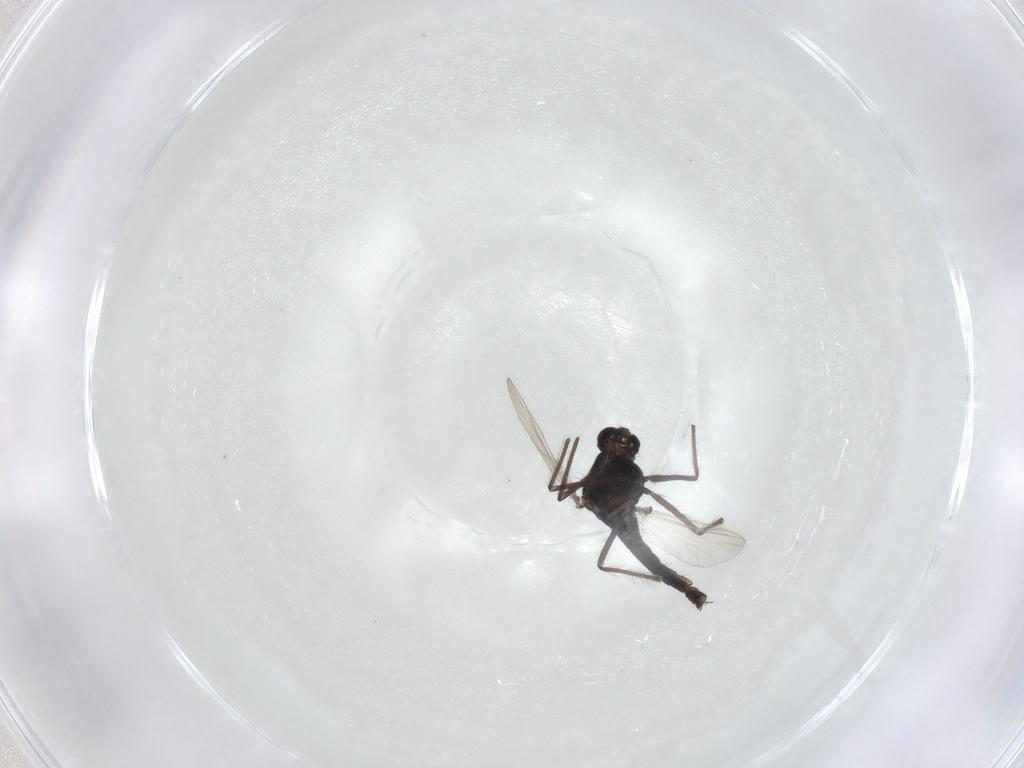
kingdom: Animalia
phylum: Arthropoda
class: Insecta
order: Diptera
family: Chironomidae
